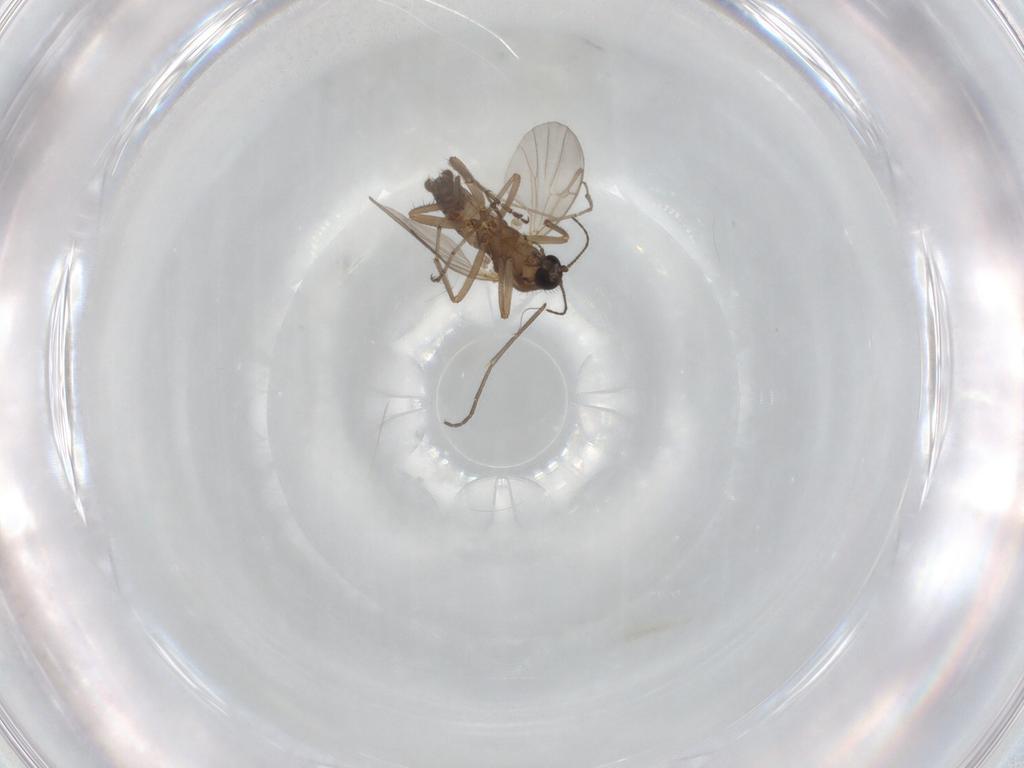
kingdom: Animalia
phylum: Arthropoda
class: Insecta
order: Diptera
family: Ceratopogonidae
